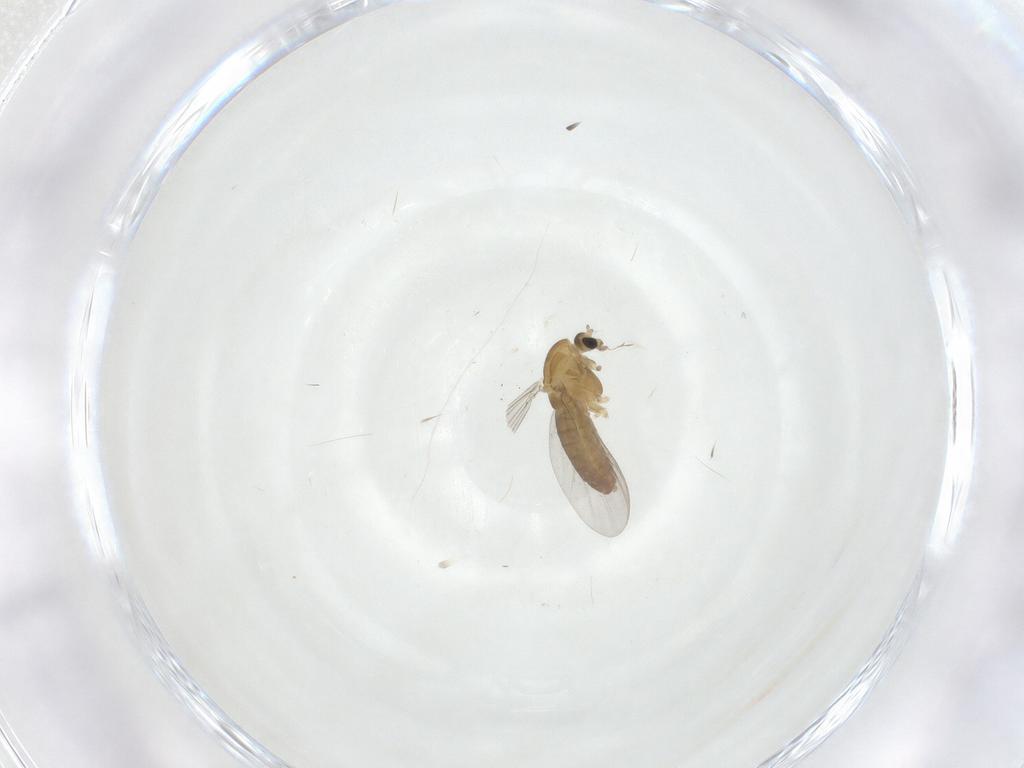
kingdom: Animalia
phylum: Arthropoda
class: Insecta
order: Diptera
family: Chironomidae
